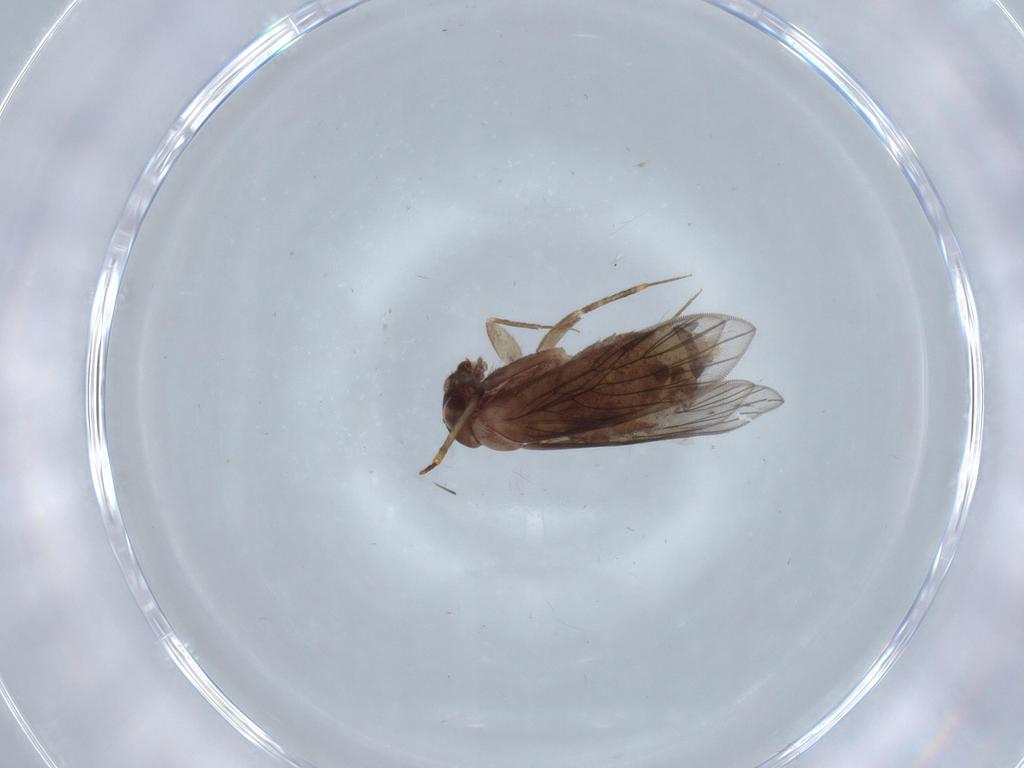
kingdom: Animalia
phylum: Arthropoda
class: Insecta
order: Psocodea
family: Lepidopsocidae
